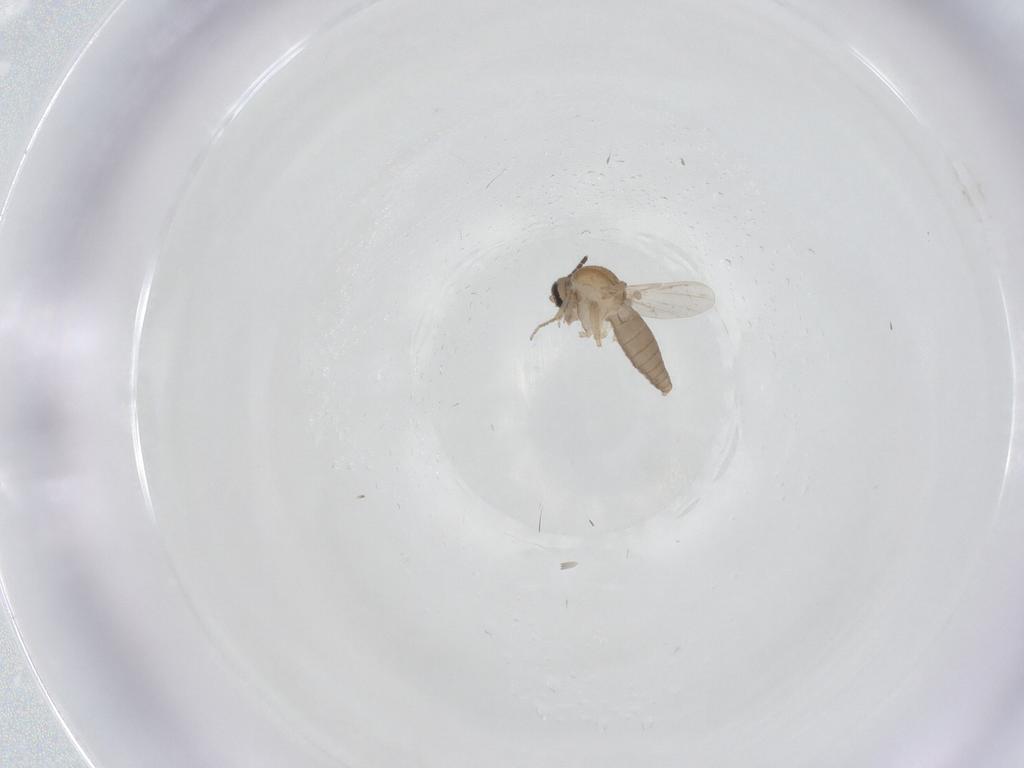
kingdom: Animalia
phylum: Arthropoda
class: Insecta
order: Diptera
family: Ceratopogonidae
